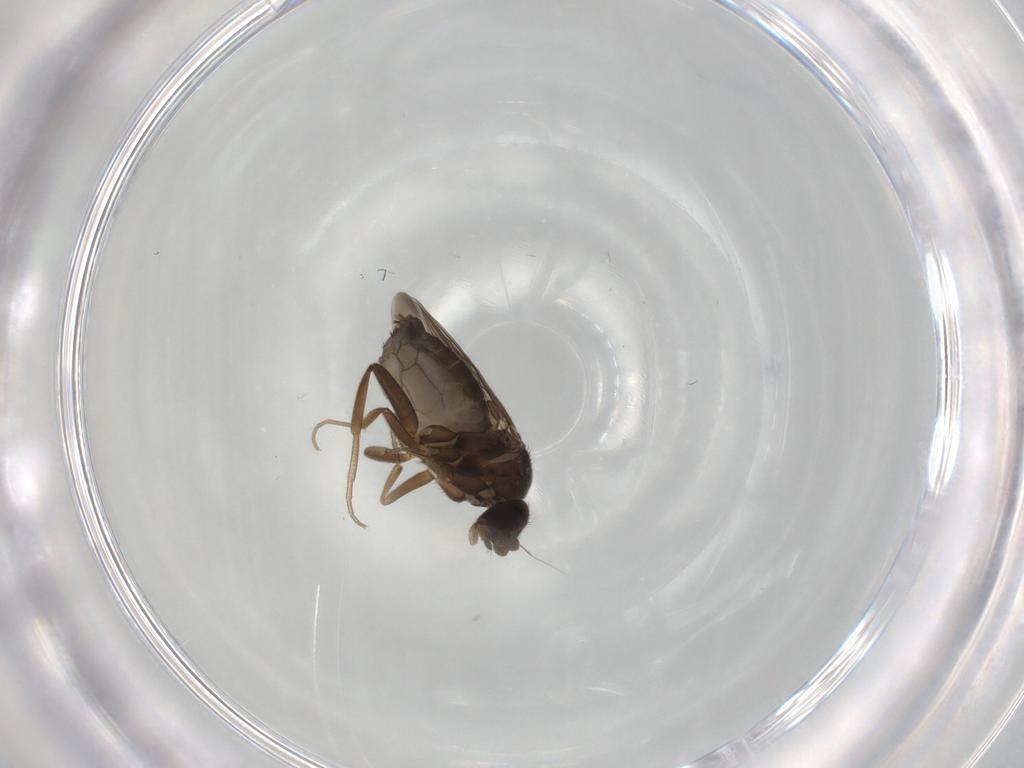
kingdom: Animalia
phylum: Arthropoda
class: Insecta
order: Diptera
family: Phoridae
